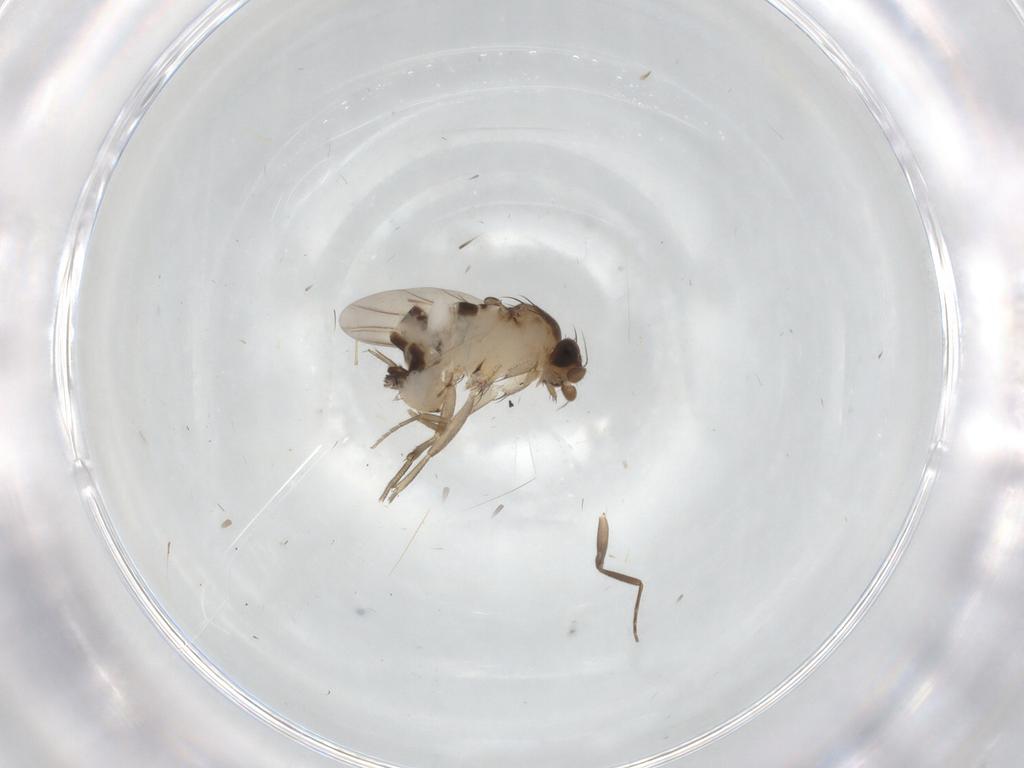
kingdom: Animalia
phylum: Arthropoda
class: Insecta
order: Diptera
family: Phoridae
